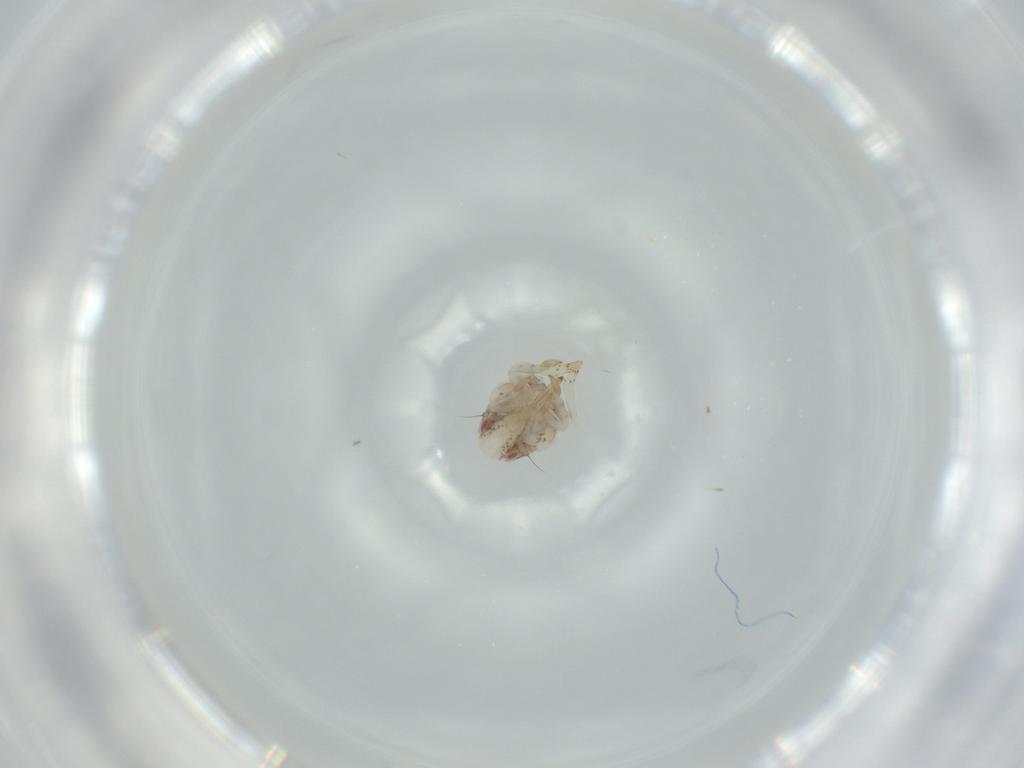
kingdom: Animalia
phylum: Arthropoda
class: Insecta
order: Hemiptera
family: Acanaloniidae
